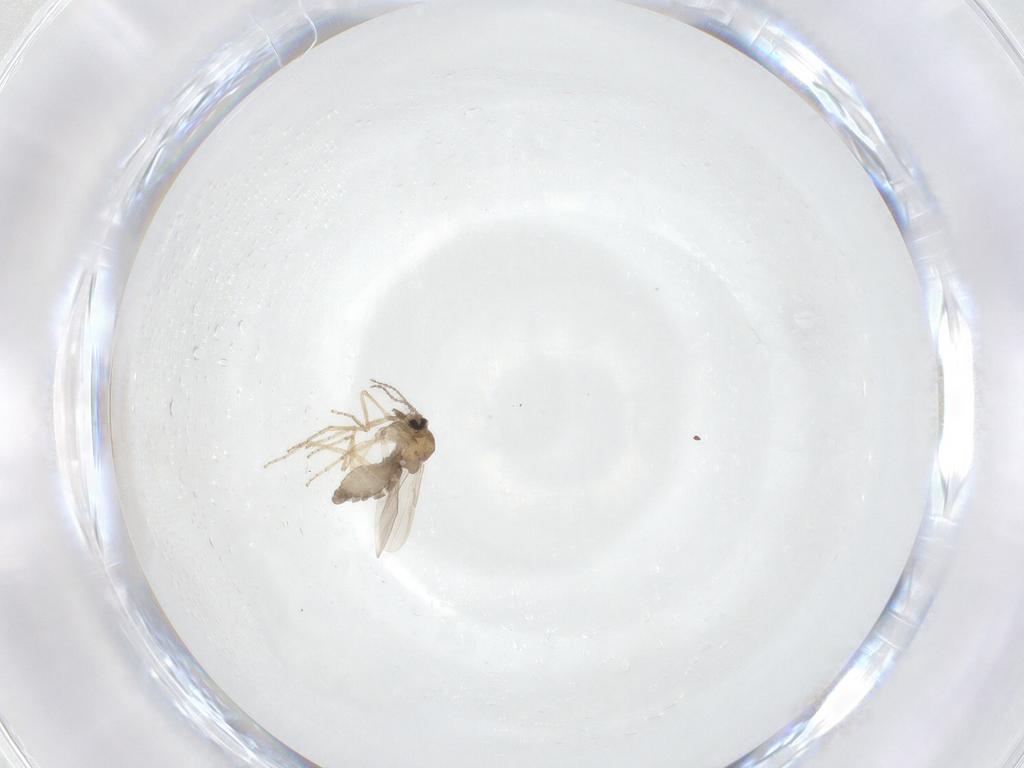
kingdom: Animalia
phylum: Arthropoda
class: Insecta
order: Diptera
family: Ceratopogonidae
